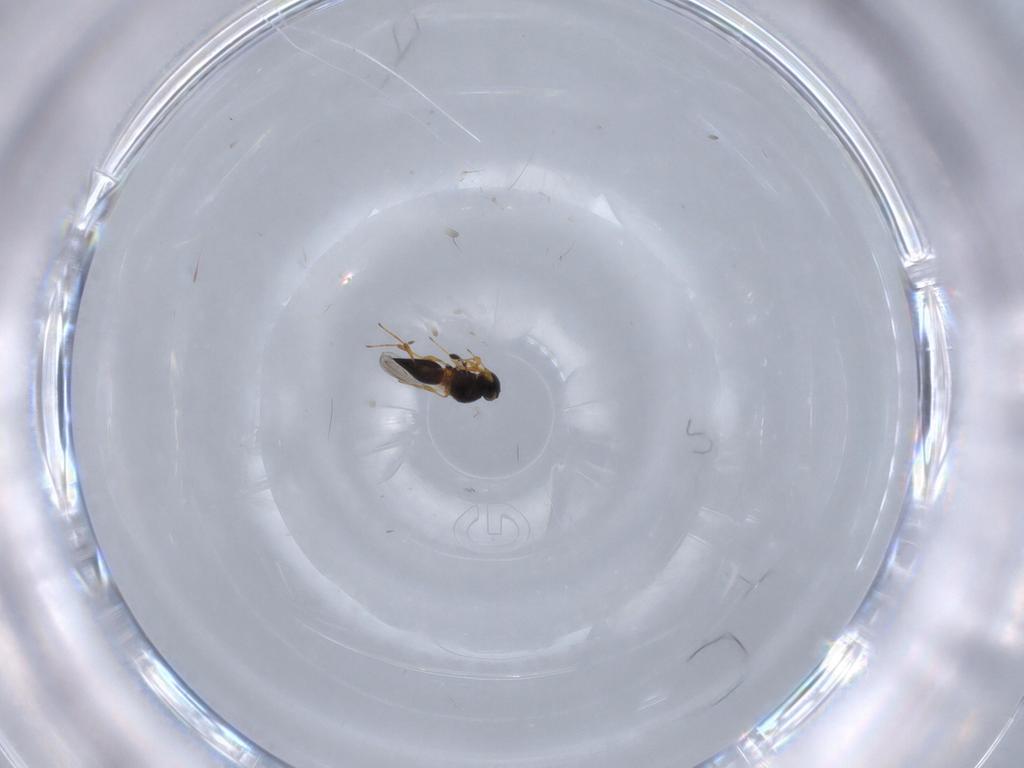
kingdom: Animalia
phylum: Arthropoda
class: Insecta
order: Hymenoptera
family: Platygastridae
